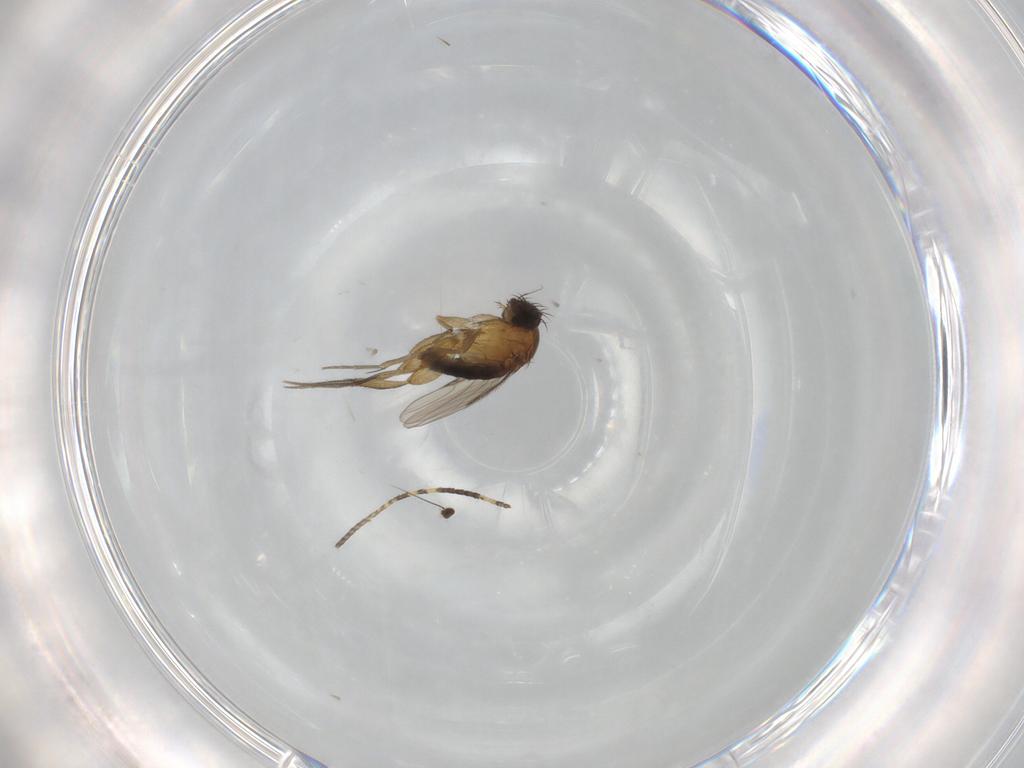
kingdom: Animalia
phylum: Arthropoda
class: Insecta
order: Diptera
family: Phoridae
